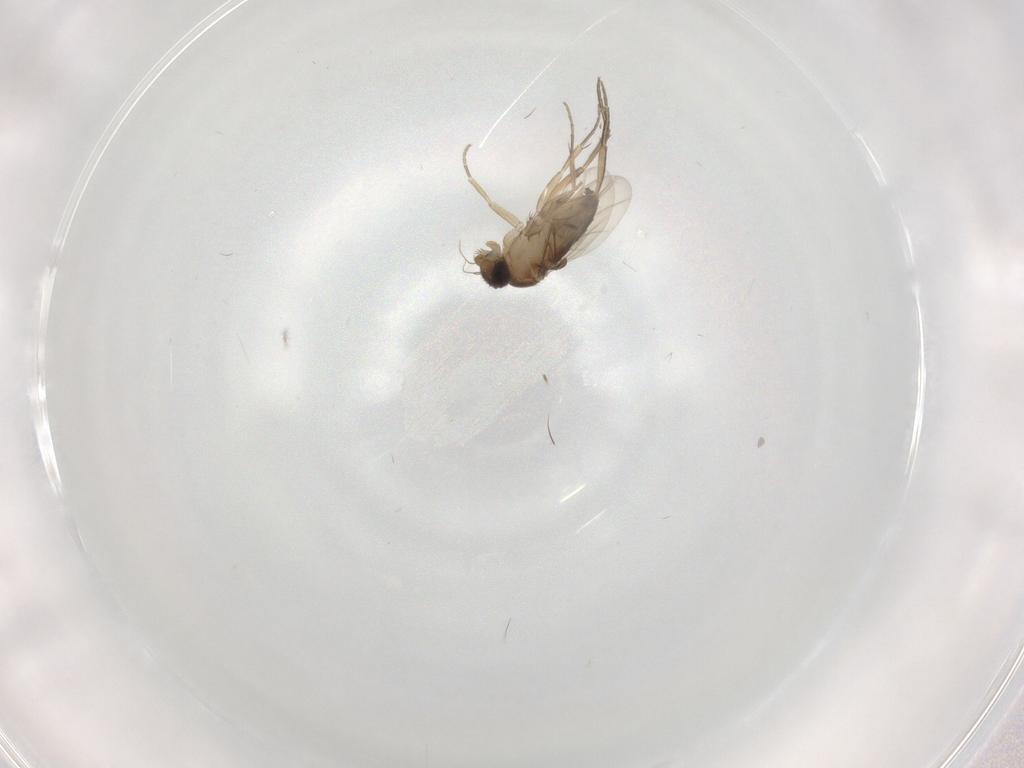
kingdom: Animalia
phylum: Arthropoda
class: Insecta
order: Diptera
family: Phoridae
